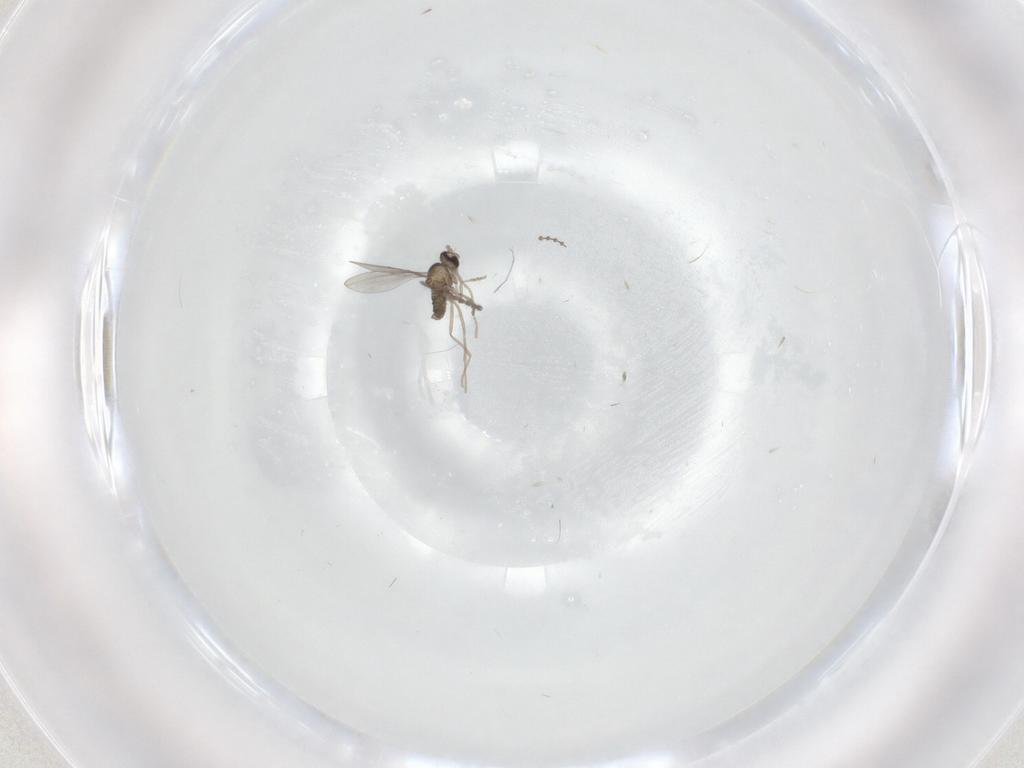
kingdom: Animalia
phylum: Arthropoda
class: Insecta
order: Diptera
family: Cecidomyiidae
